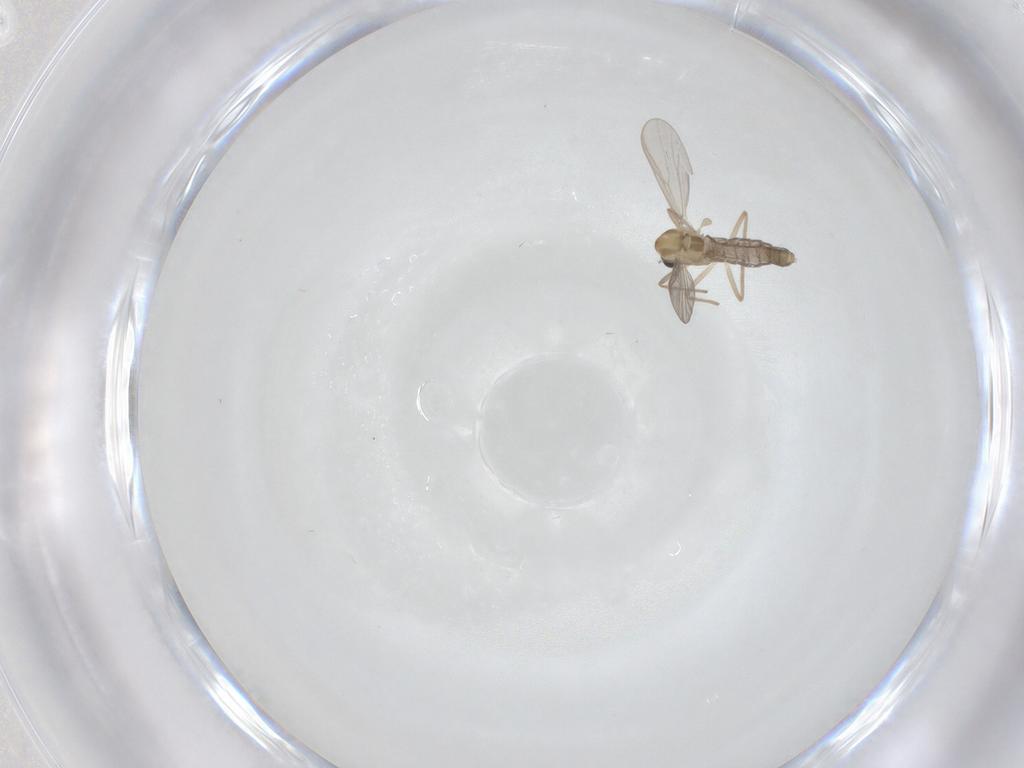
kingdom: Animalia
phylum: Arthropoda
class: Insecta
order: Diptera
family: Chironomidae
